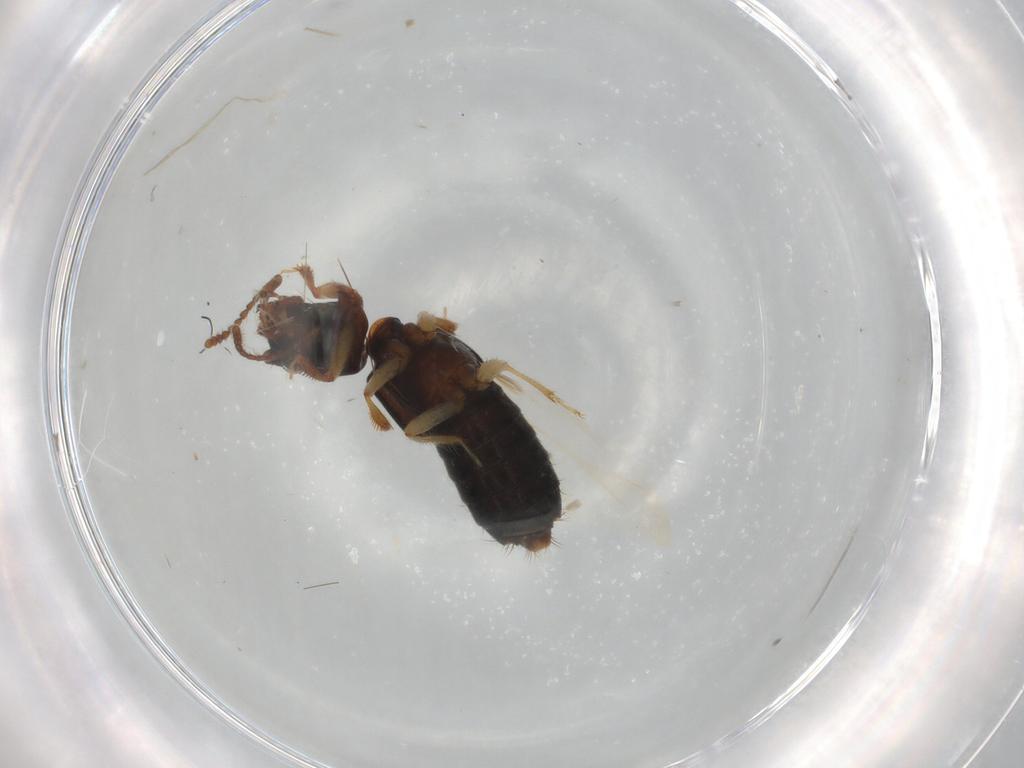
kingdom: Animalia
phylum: Arthropoda
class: Insecta
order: Coleoptera
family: Staphylinidae
